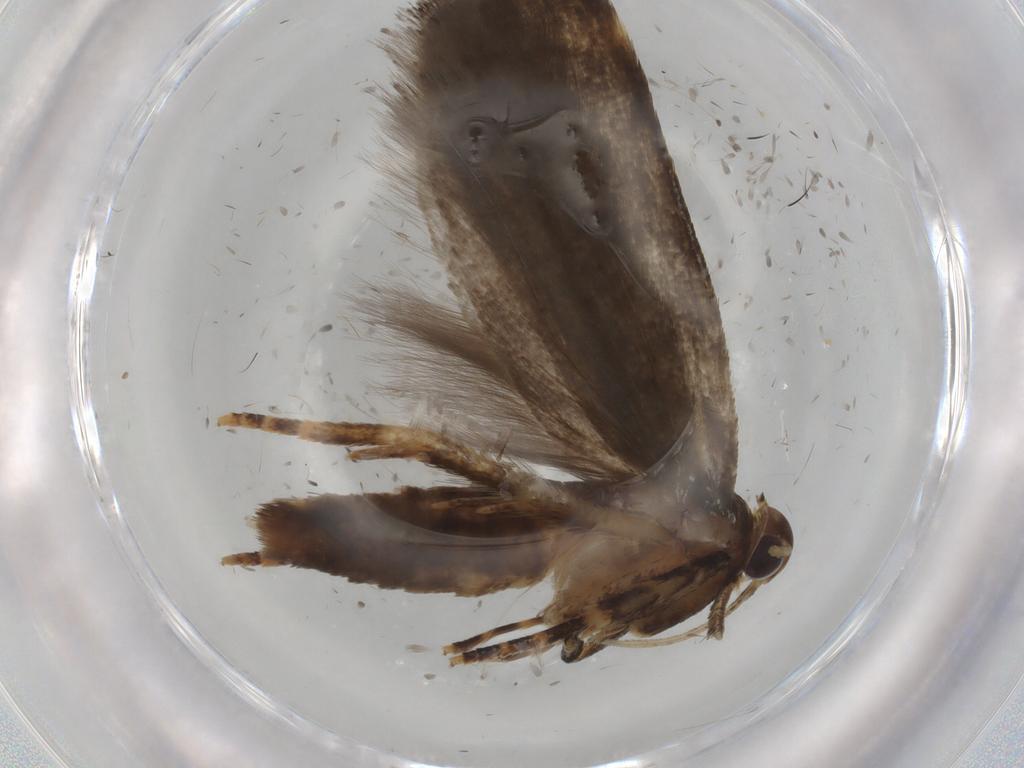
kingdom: Animalia
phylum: Arthropoda
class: Insecta
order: Lepidoptera
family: Gelechiidae
